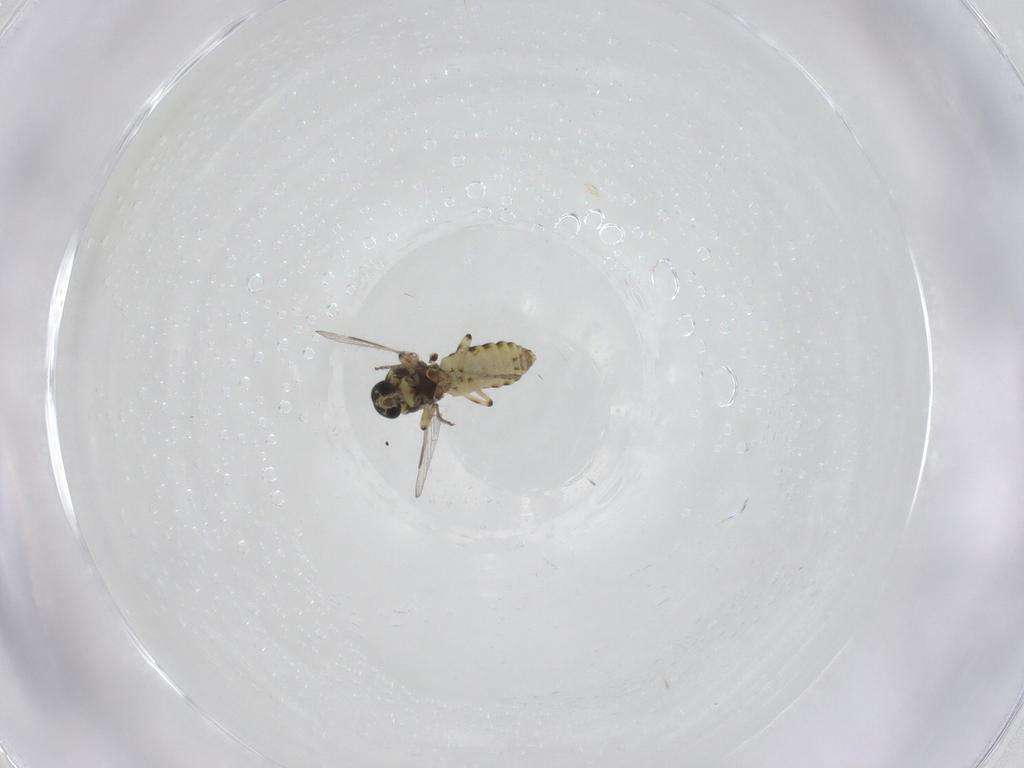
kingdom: Animalia
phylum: Arthropoda
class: Insecta
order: Diptera
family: Ceratopogonidae
